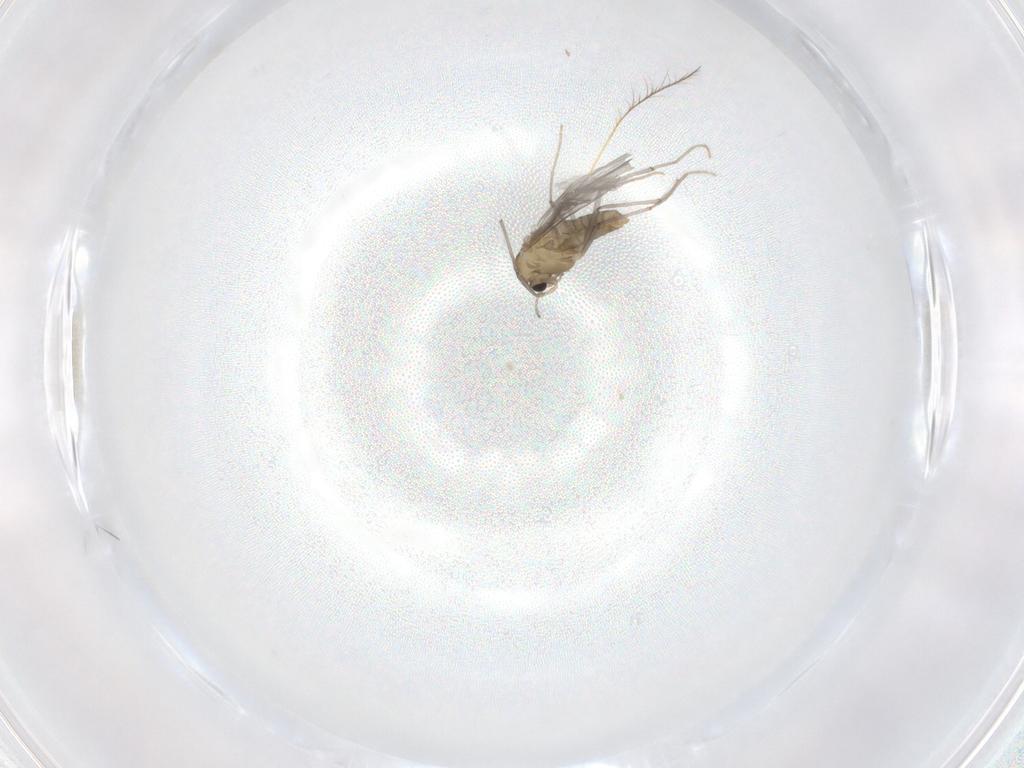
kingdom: Animalia
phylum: Arthropoda
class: Insecta
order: Diptera
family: Chironomidae
